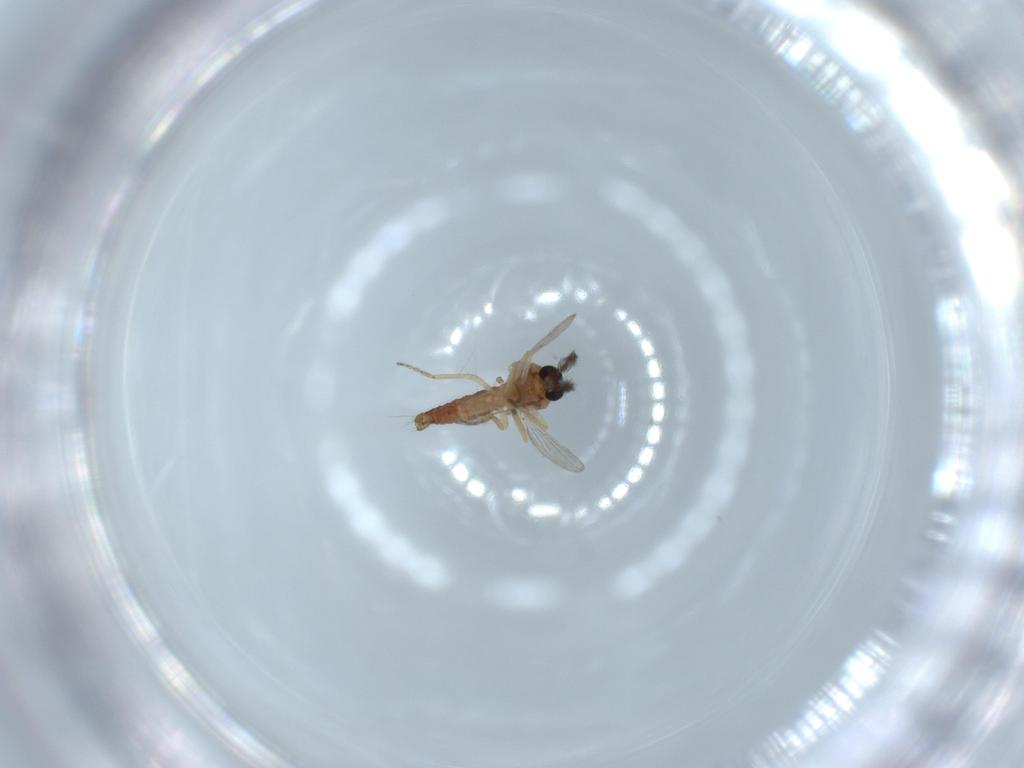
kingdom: Animalia
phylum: Arthropoda
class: Insecta
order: Diptera
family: Ceratopogonidae
